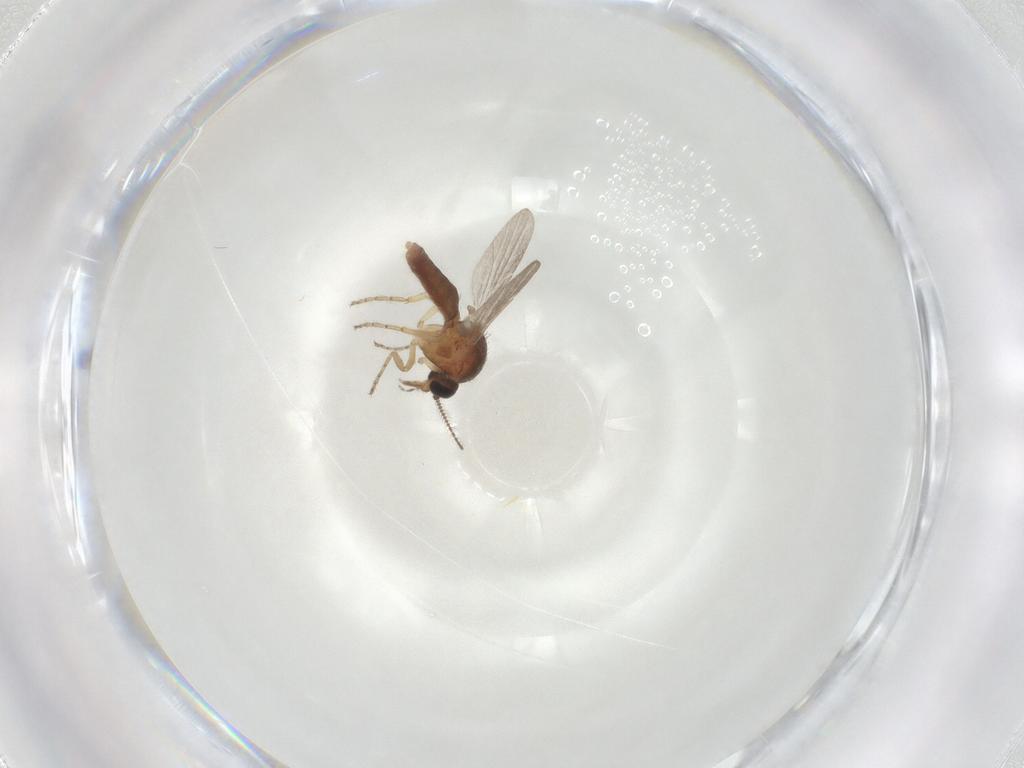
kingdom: Animalia
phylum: Arthropoda
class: Insecta
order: Diptera
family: Ceratopogonidae
